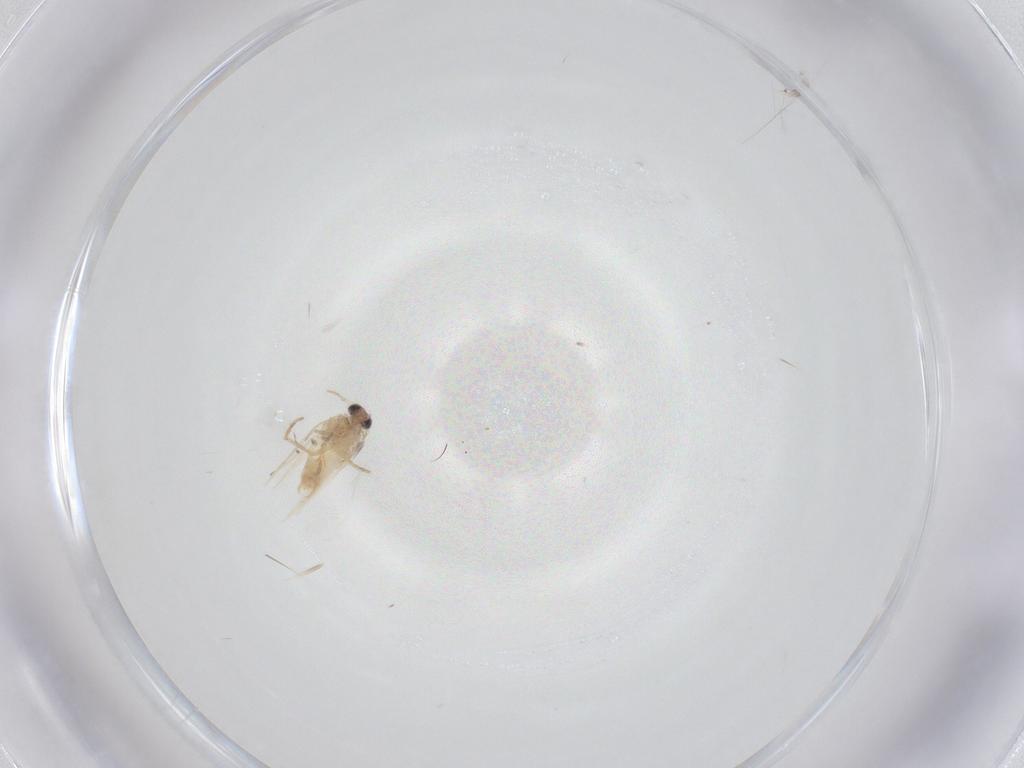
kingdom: Animalia
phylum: Arthropoda
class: Insecta
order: Lepidoptera
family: Nepticulidae
